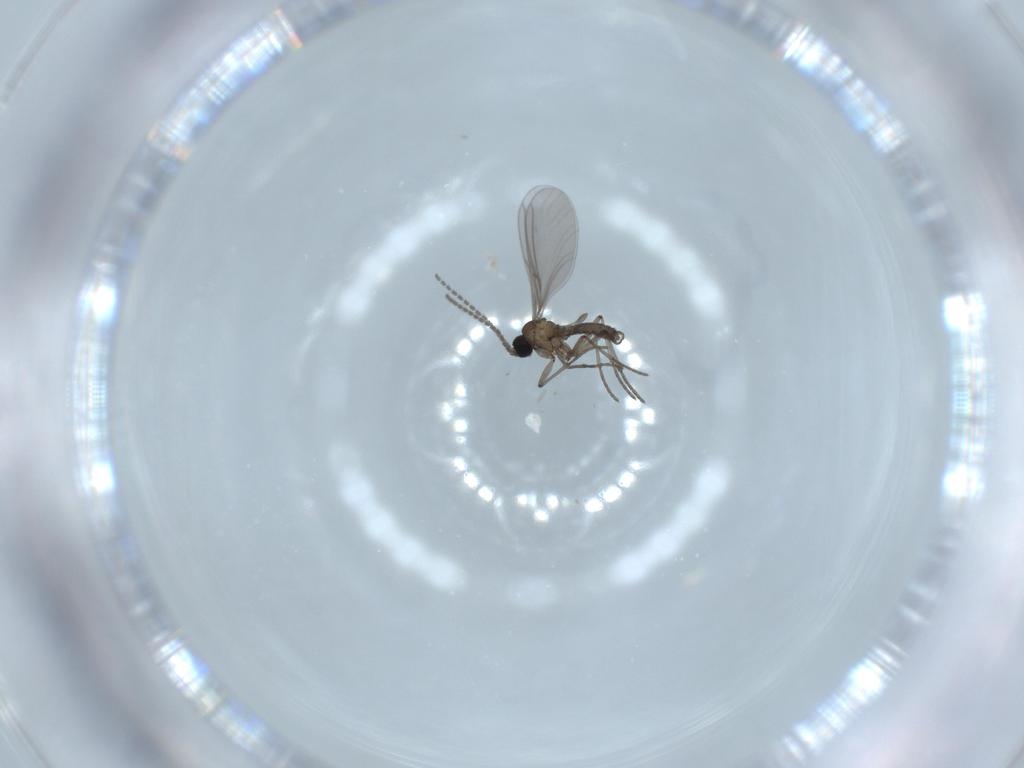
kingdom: Animalia
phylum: Arthropoda
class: Insecta
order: Diptera
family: Sciaridae
